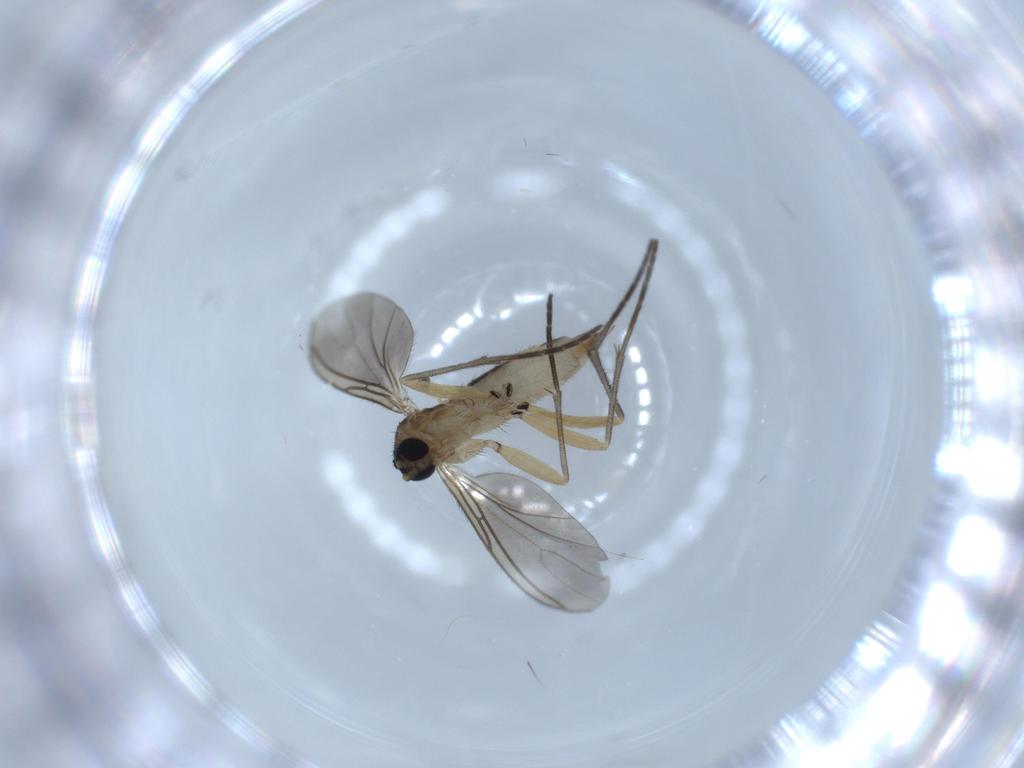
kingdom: Animalia
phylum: Arthropoda
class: Insecta
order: Diptera
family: Sciaridae
